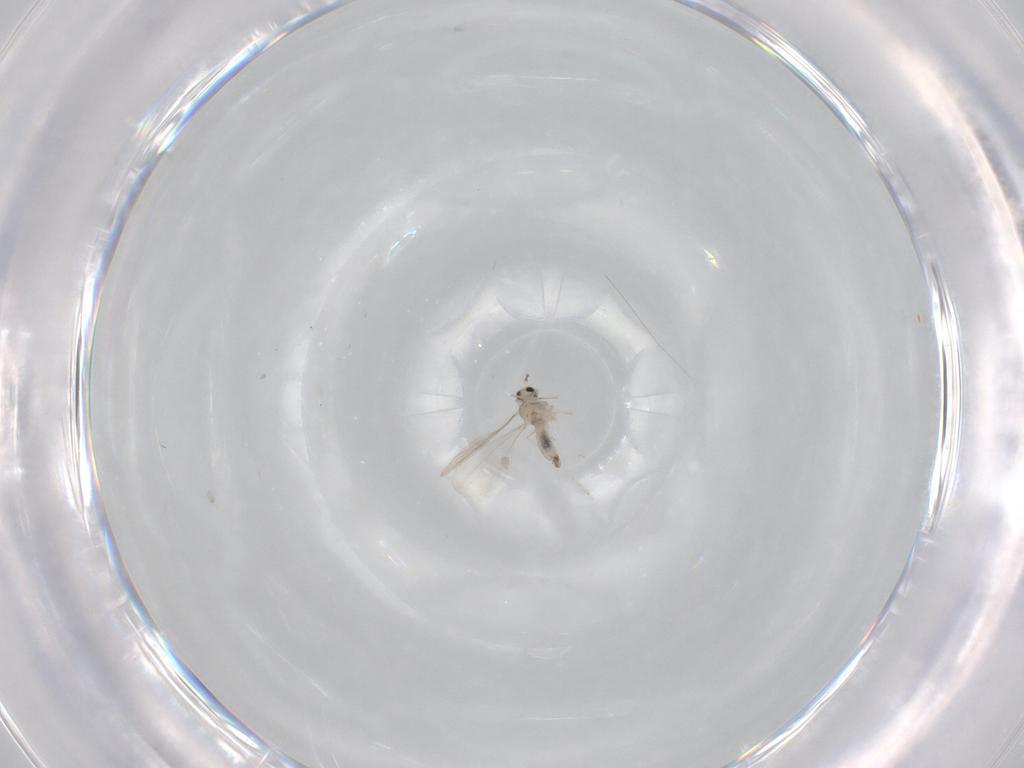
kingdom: Animalia
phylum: Arthropoda
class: Insecta
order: Diptera
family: Cecidomyiidae
